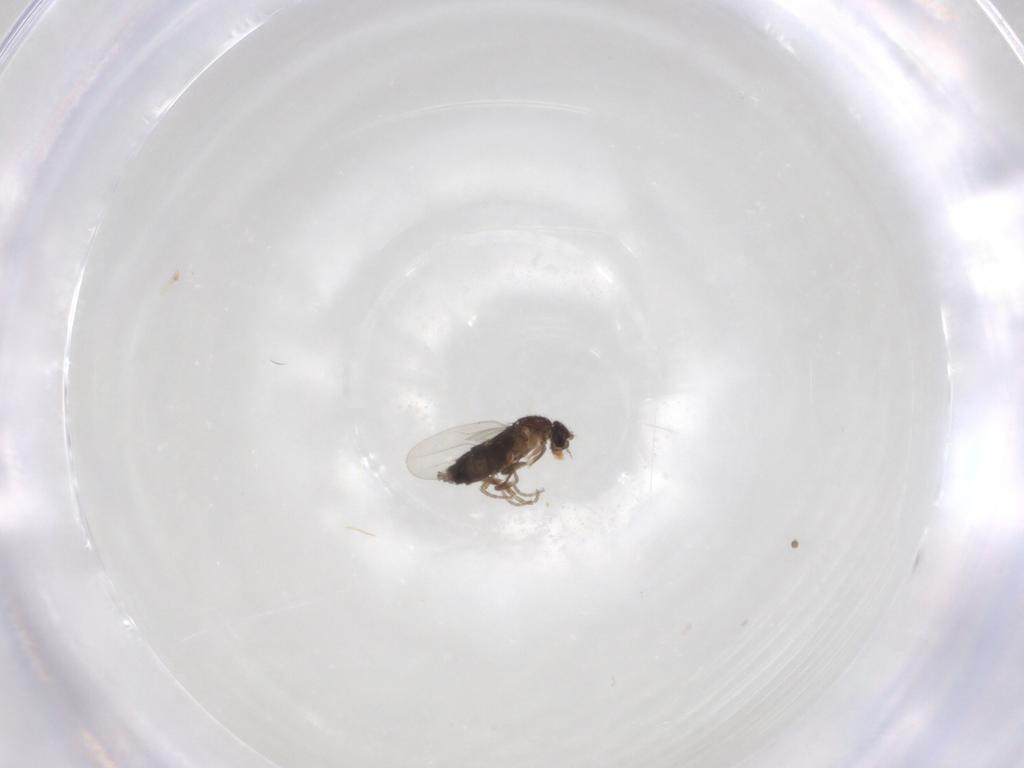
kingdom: Animalia
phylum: Arthropoda
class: Insecta
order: Diptera
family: Phoridae
